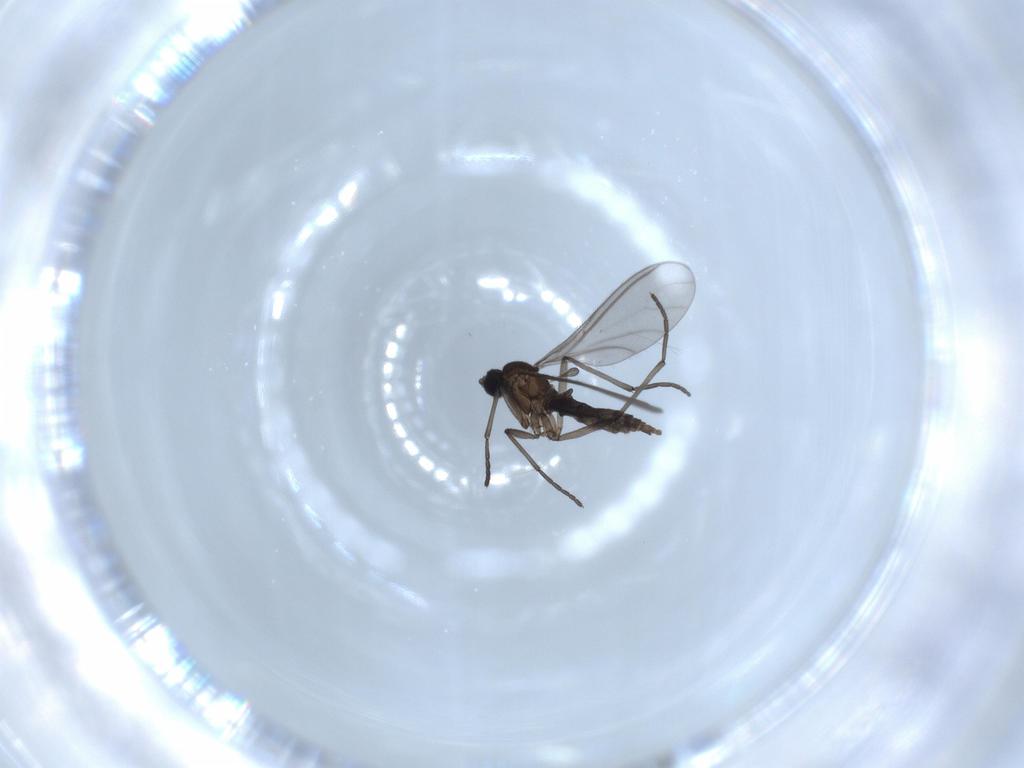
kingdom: Animalia
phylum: Arthropoda
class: Insecta
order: Diptera
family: Sciaridae
